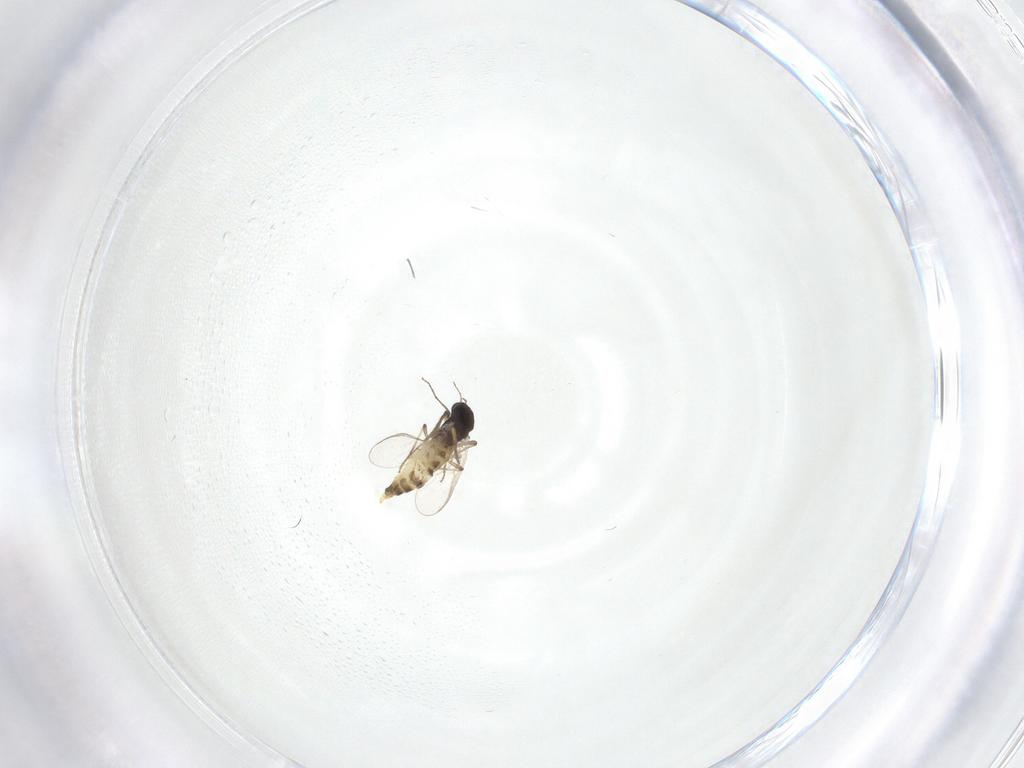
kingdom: Animalia
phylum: Arthropoda
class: Insecta
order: Diptera
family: Chironomidae
